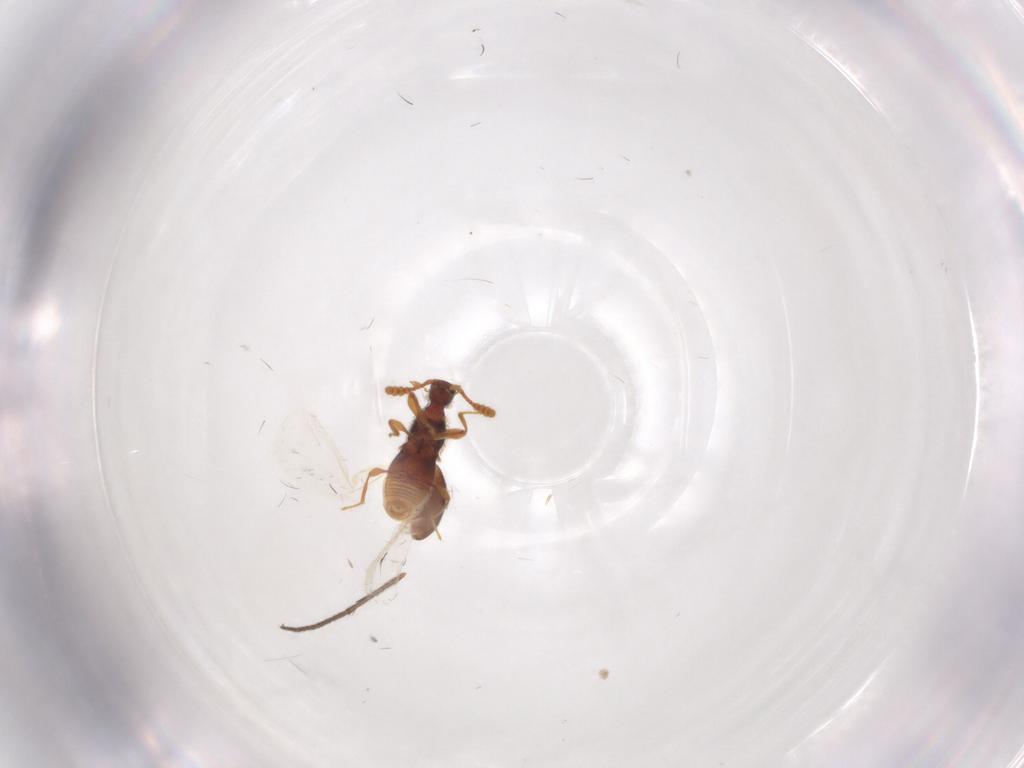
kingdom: Animalia
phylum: Arthropoda
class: Insecta
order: Coleoptera
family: Staphylinidae
